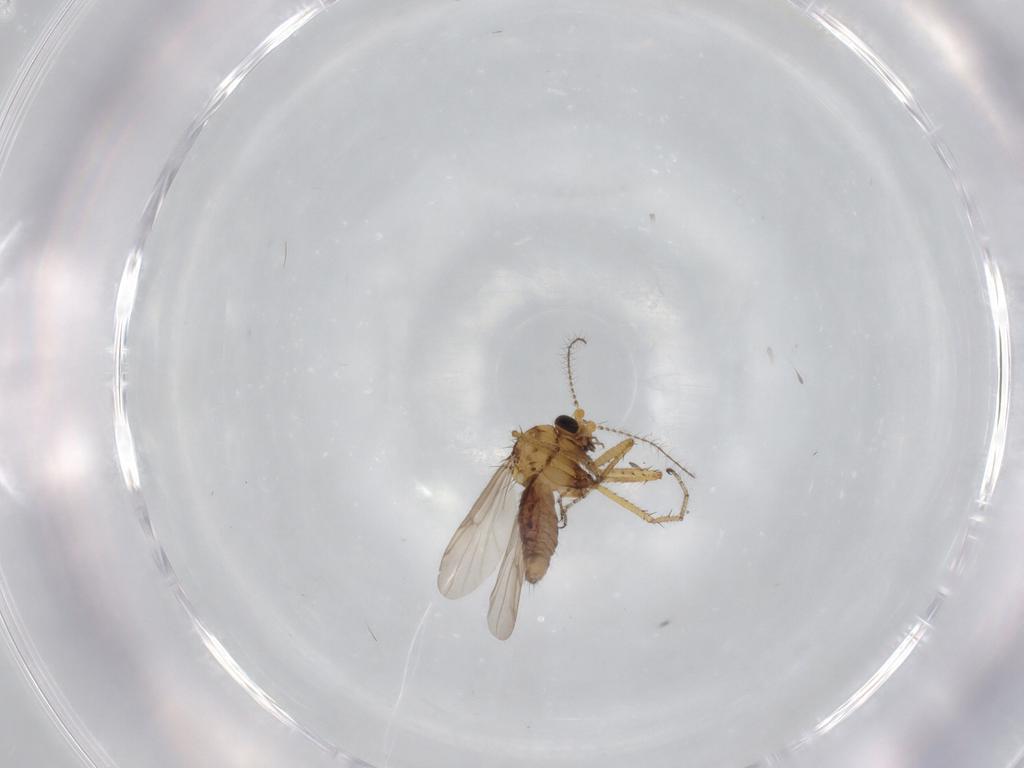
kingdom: Animalia
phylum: Arthropoda
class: Insecta
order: Diptera
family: Ceratopogonidae
